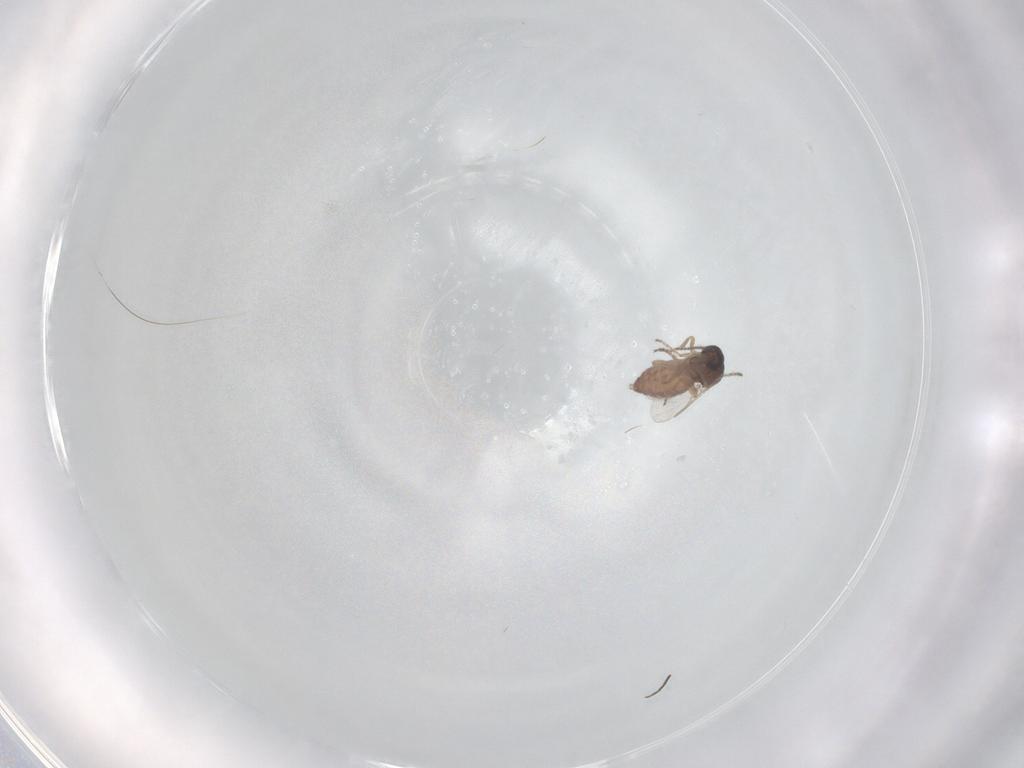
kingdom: Animalia
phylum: Arthropoda
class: Insecta
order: Diptera
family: Ceratopogonidae
